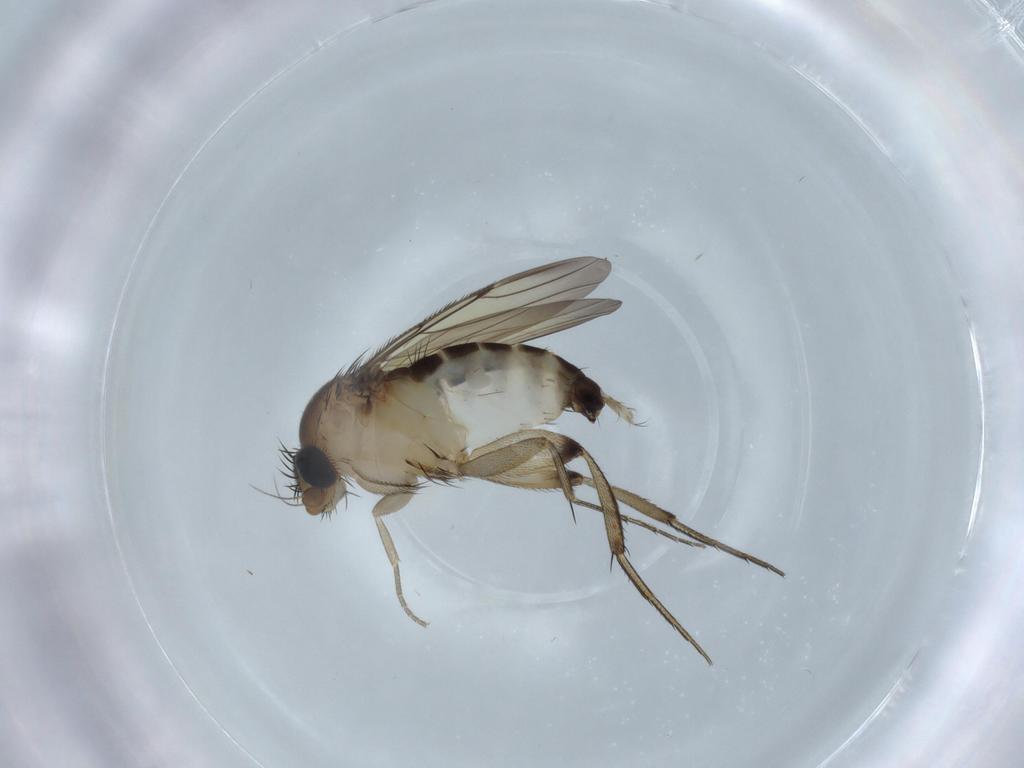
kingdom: Animalia
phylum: Arthropoda
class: Insecta
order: Diptera
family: Phoridae
